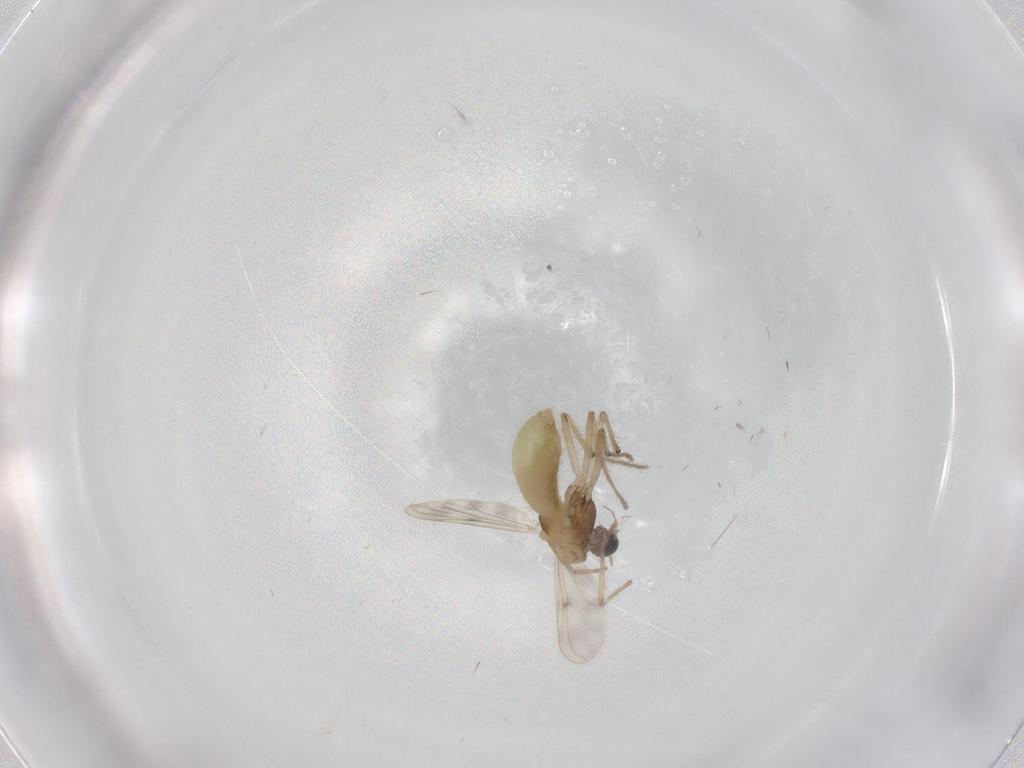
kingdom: Animalia
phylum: Arthropoda
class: Insecta
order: Diptera
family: Chironomidae
